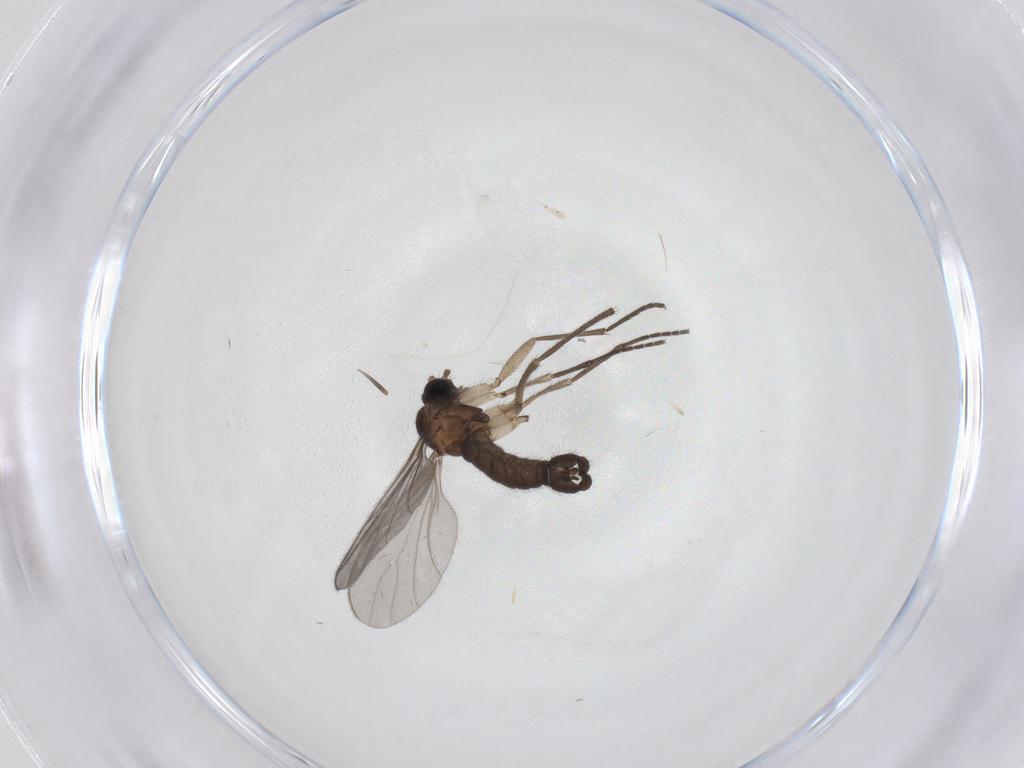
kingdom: Animalia
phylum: Arthropoda
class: Insecta
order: Diptera
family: Sciaridae
